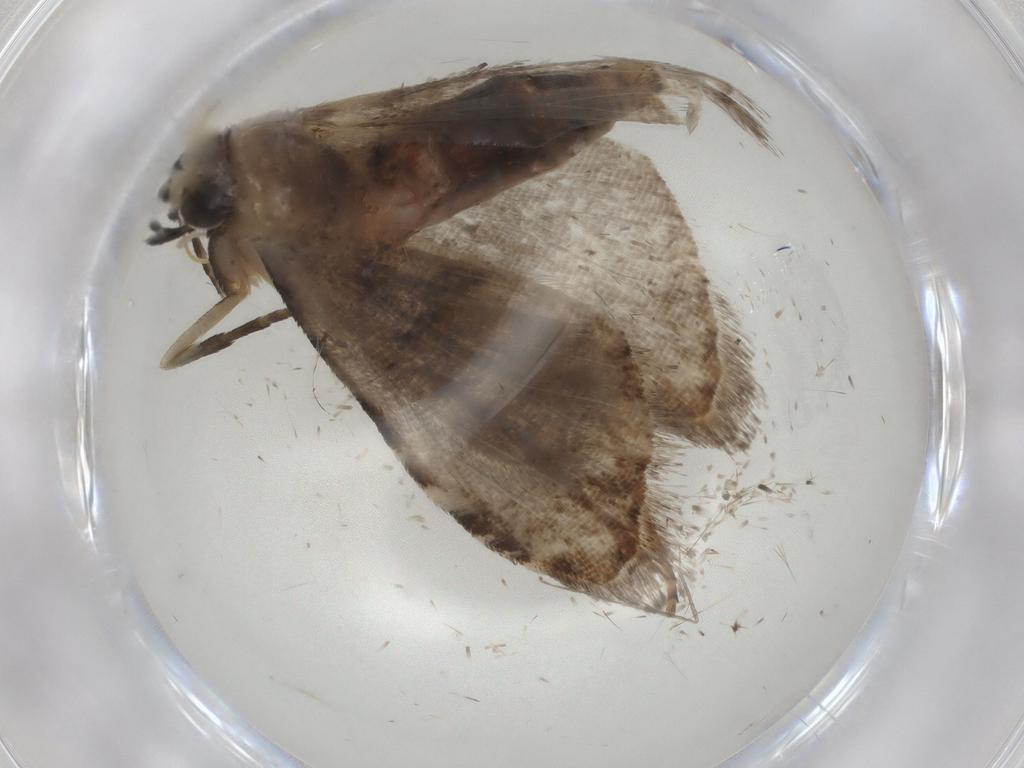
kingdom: Animalia
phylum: Arthropoda
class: Insecta
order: Lepidoptera
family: Noctuidae
